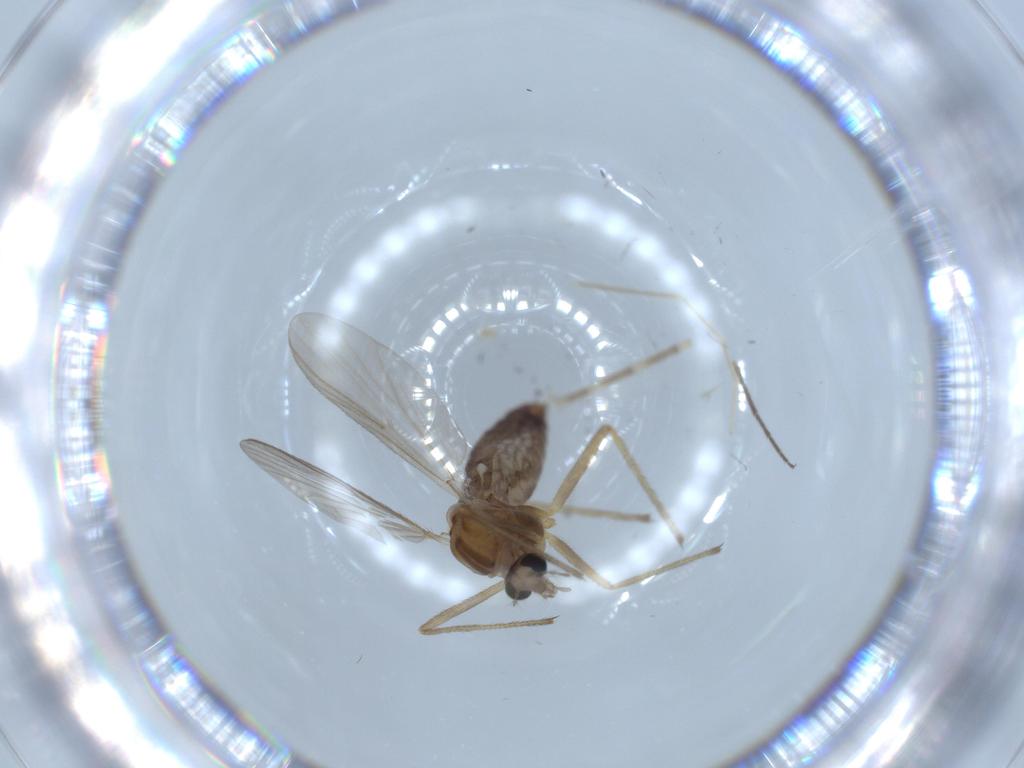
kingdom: Animalia
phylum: Arthropoda
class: Insecta
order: Diptera
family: Chironomidae
